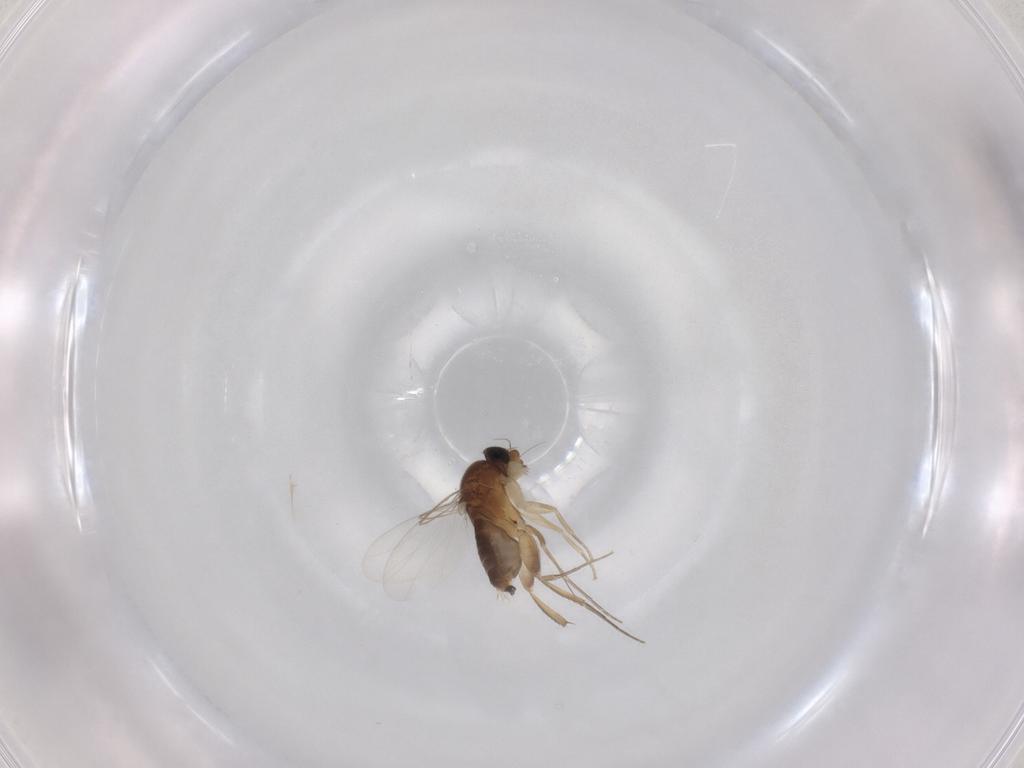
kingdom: Animalia
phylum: Arthropoda
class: Insecta
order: Diptera
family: Phoridae
